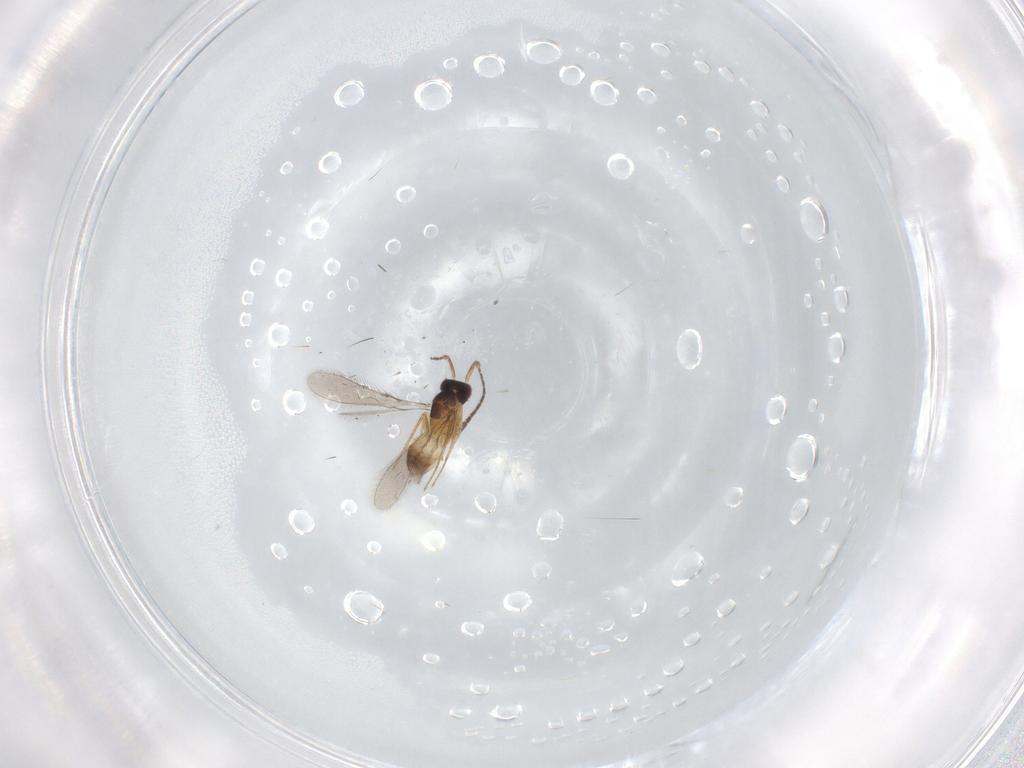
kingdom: Animalia
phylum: Arthropoda
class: Insecta
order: Hymenoptera
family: Mymaridae
